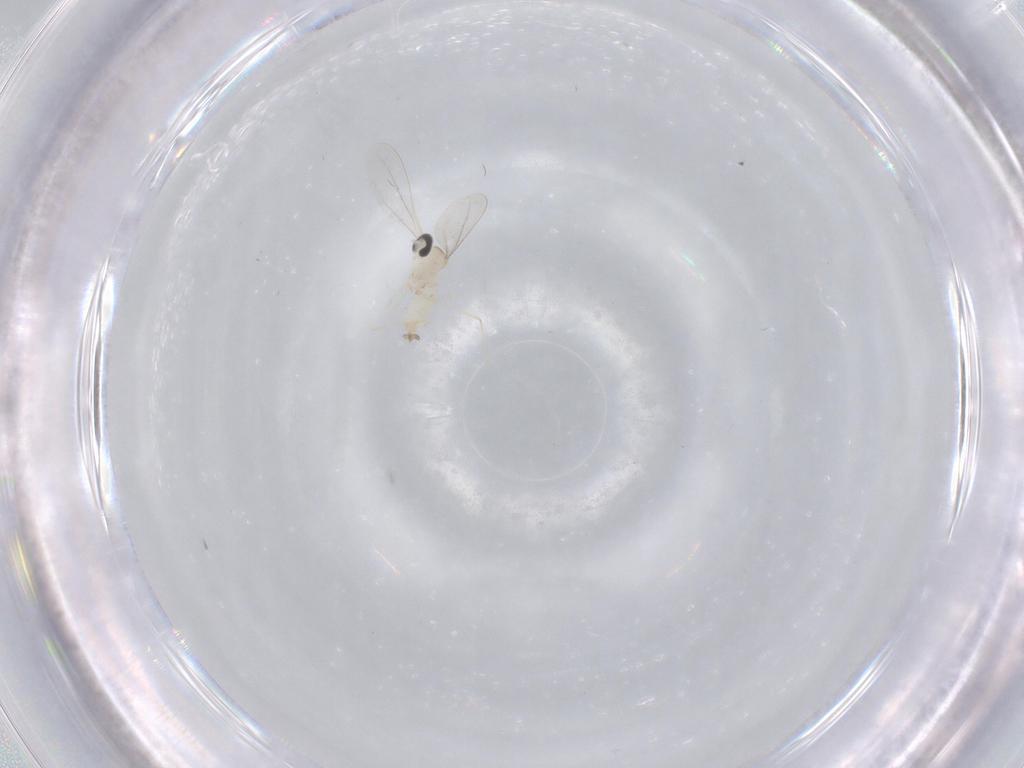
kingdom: Animalia
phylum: Arthropoda
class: Insecta
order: Diptera
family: Cecidomyiidae
